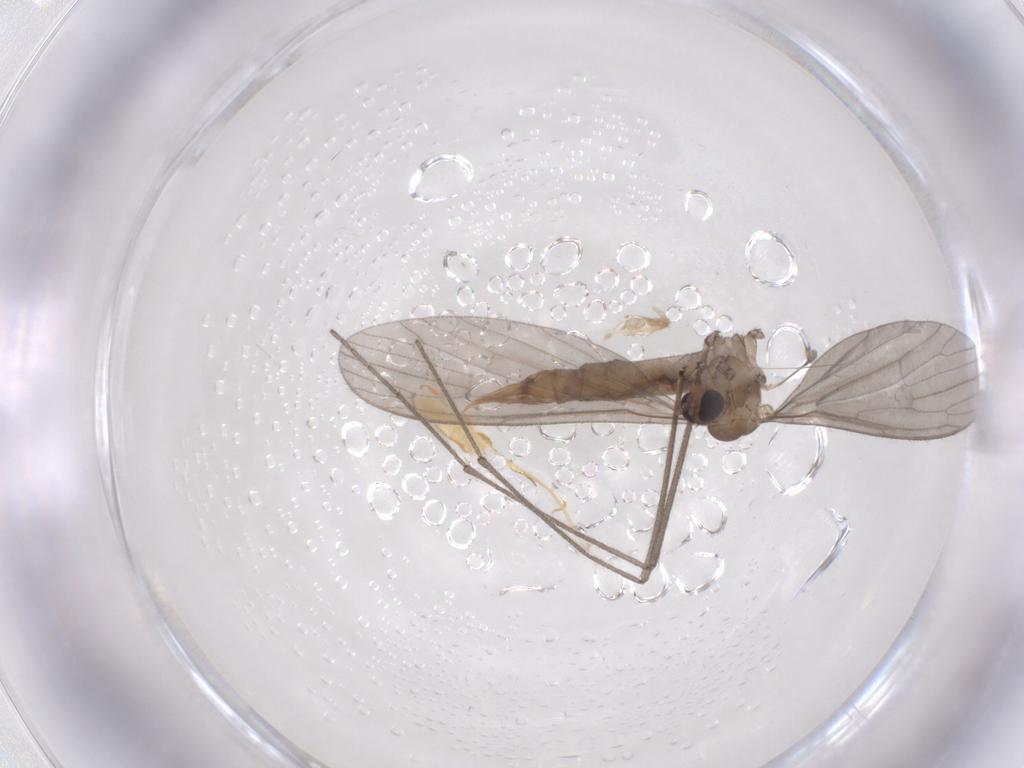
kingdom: Animalia
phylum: Arthropoda
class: Insecta
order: Diptera
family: Limoniidae
